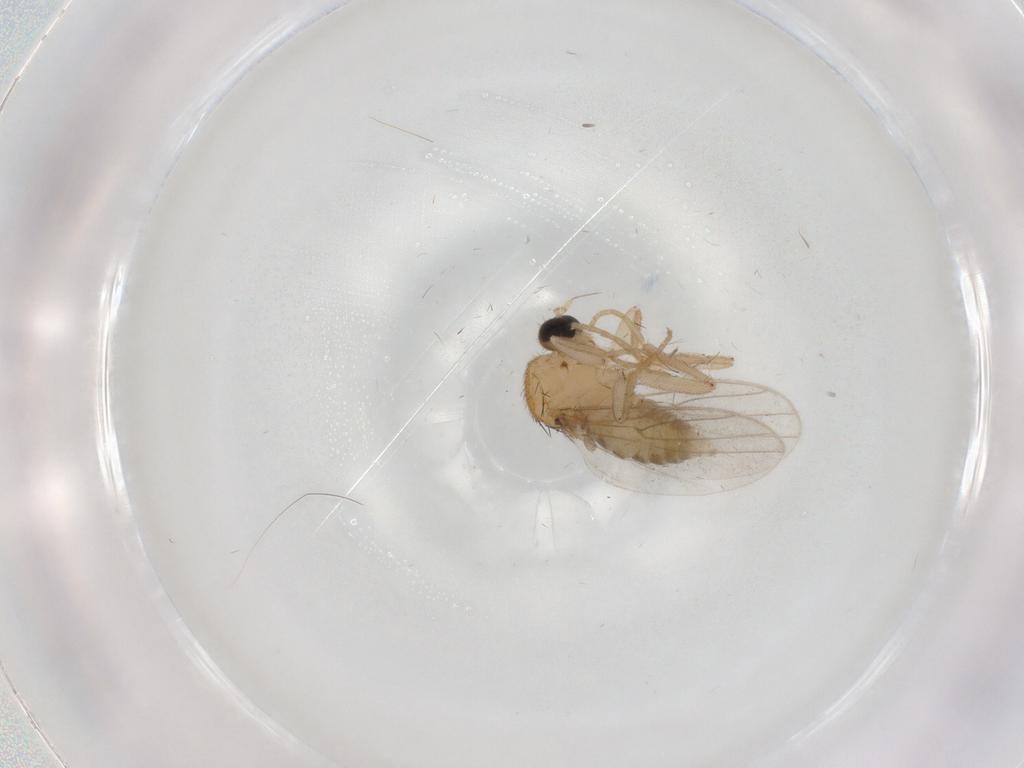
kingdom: Animalia
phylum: Arthropoda
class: Insecta
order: Diptera
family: Hybotidae
